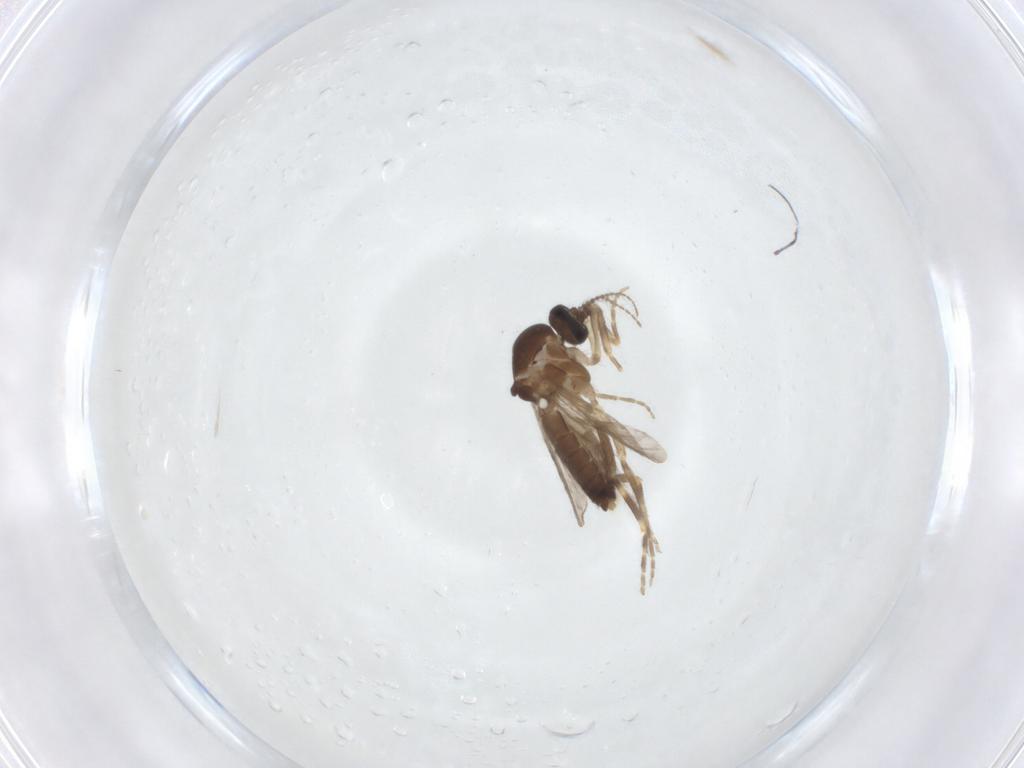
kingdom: Animalia
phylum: Arthropoda
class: Insecta
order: Diptera
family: Ceratopogonidae
